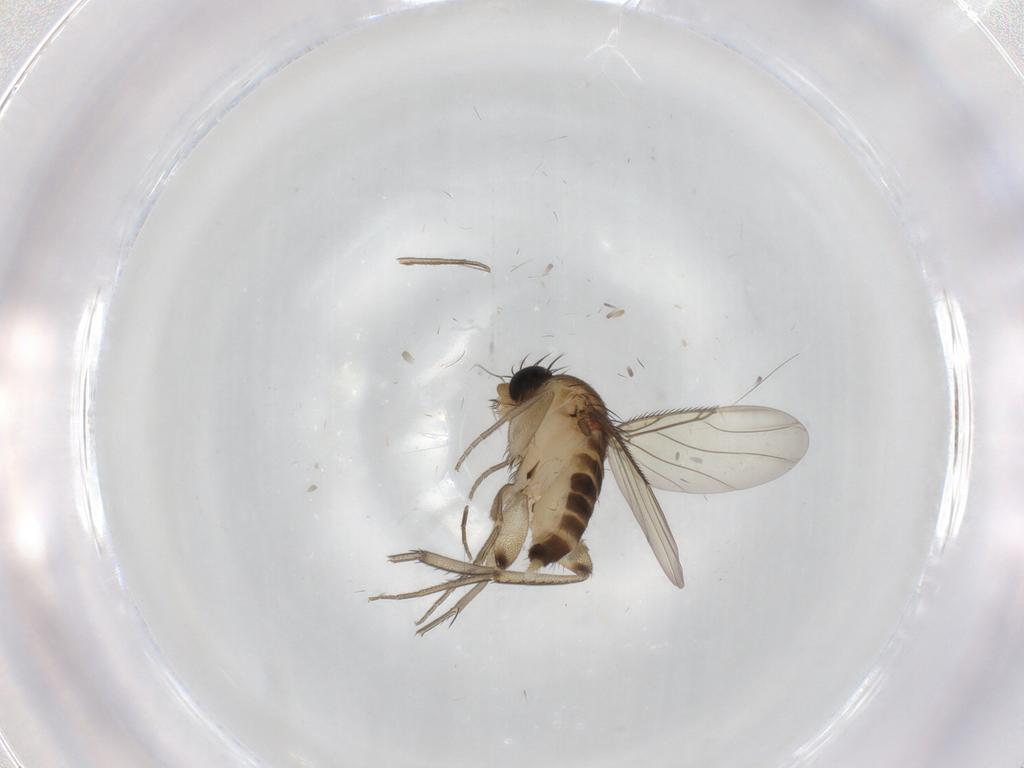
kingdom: Animalia
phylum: Arthropoda
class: Insecta
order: Diptera
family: Phoridae
